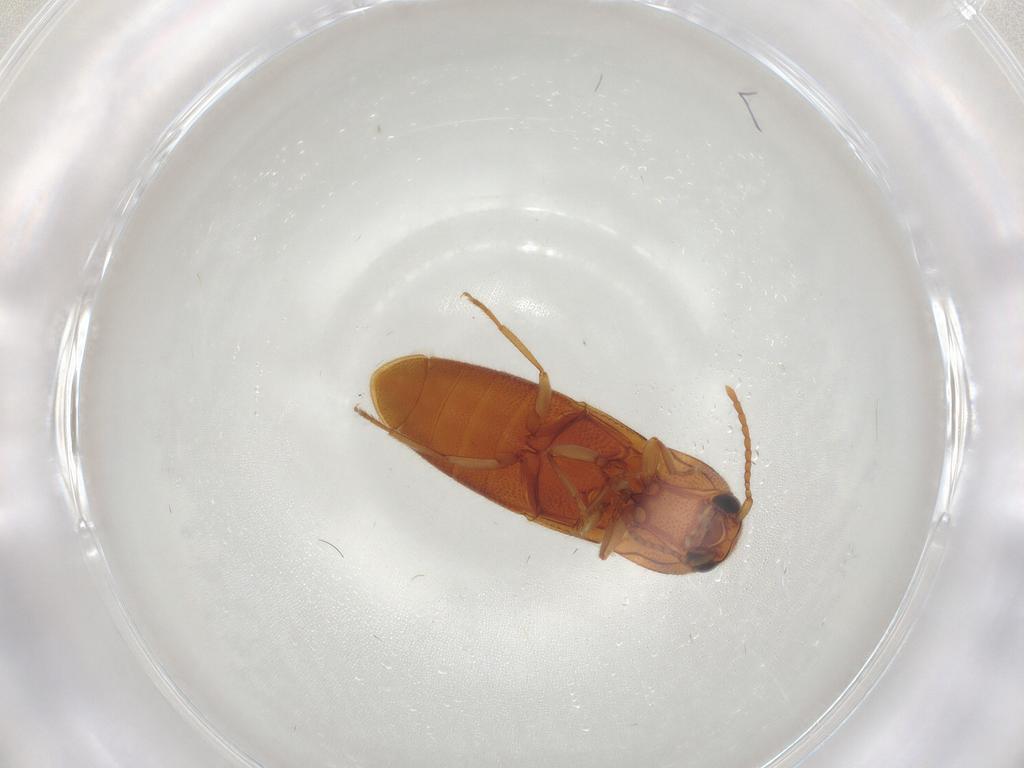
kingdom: Animalia
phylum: Arthropoda
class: Insecta
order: Coleoptera
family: Elateridae
